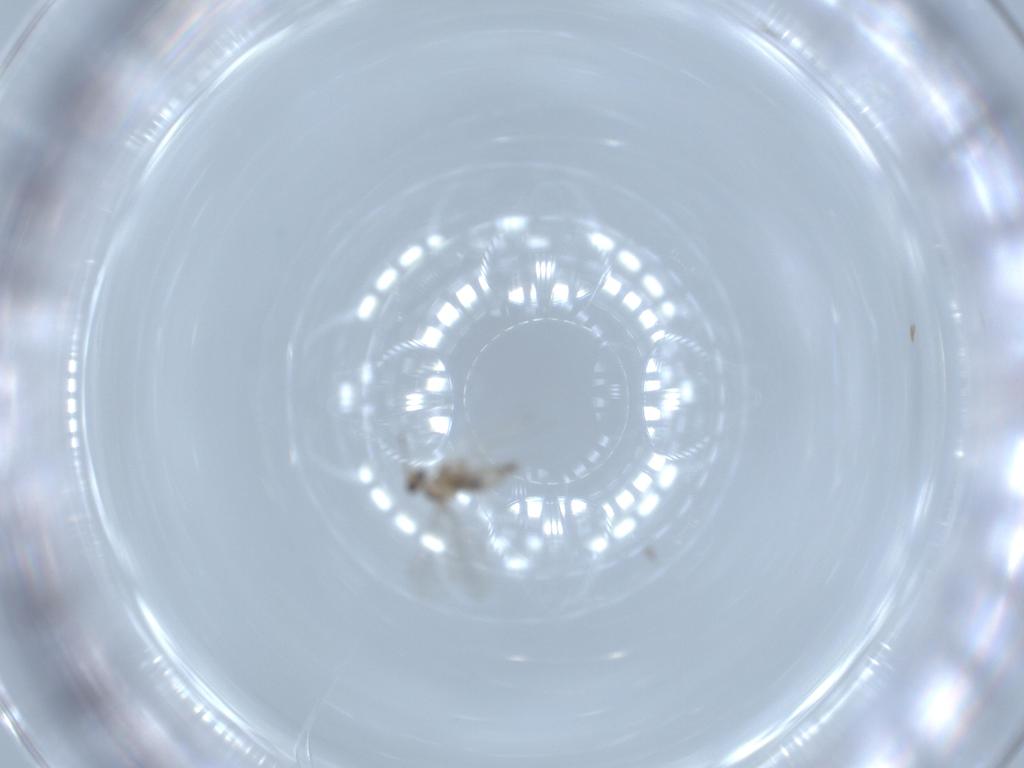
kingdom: Animalia
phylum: Arthropoda
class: Insecta
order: Diptera
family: Cecidomyiidae
